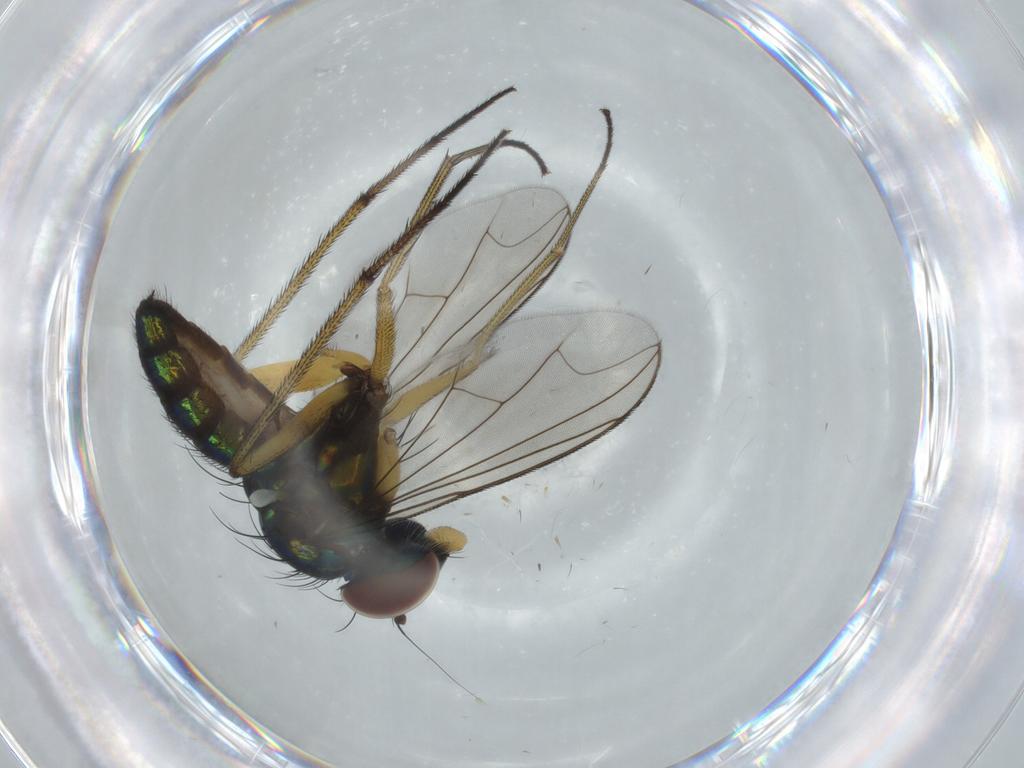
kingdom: Animalia
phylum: Arthropoda
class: Insecta
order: Diptera
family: Dolichopodidae
